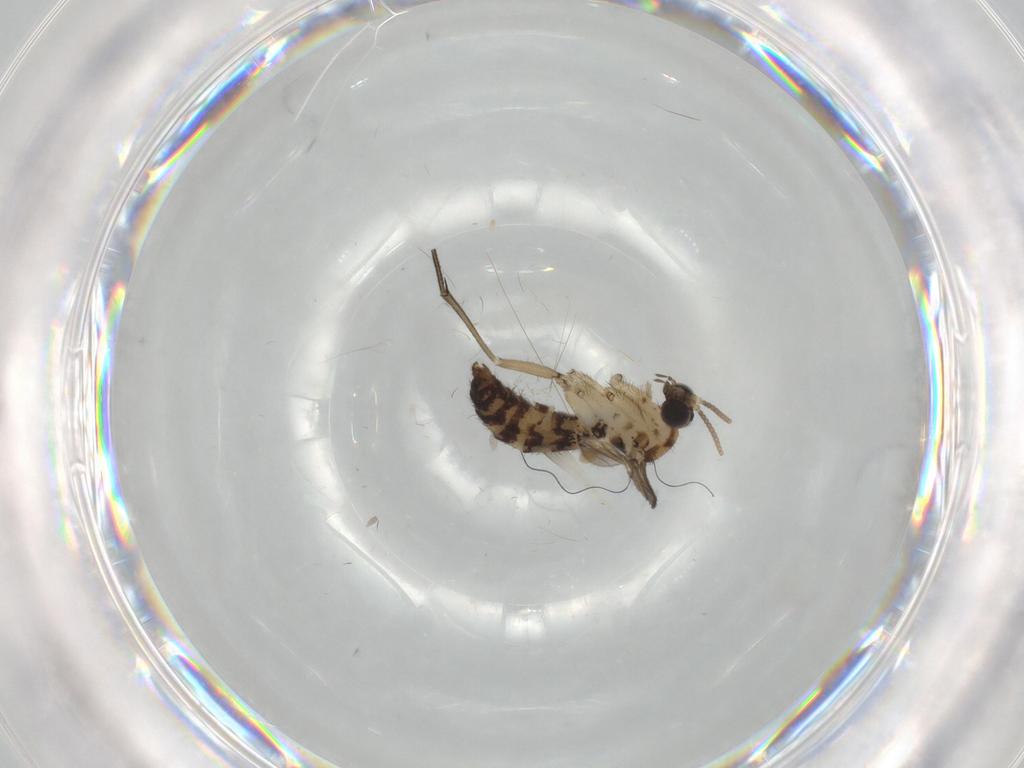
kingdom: Animalia
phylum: Arthropoda
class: Insecta
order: Diptera
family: Keroplatidae
